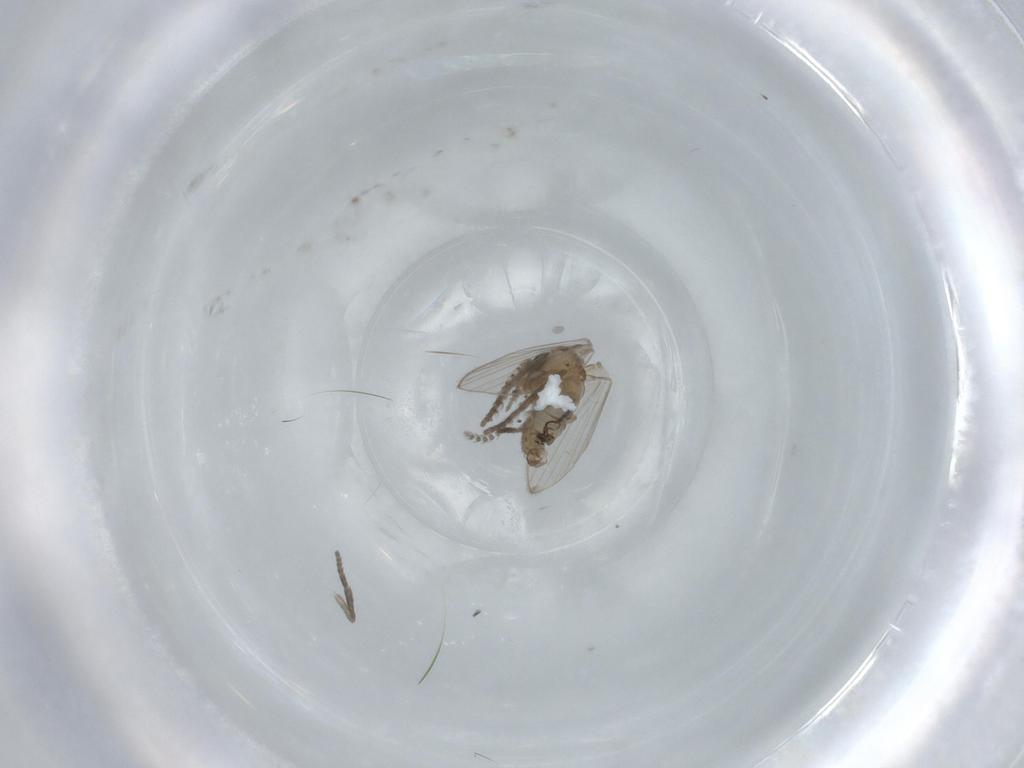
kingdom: Animalia
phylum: Arthropoda
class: Insecta
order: Diptera
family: Psychodidae
